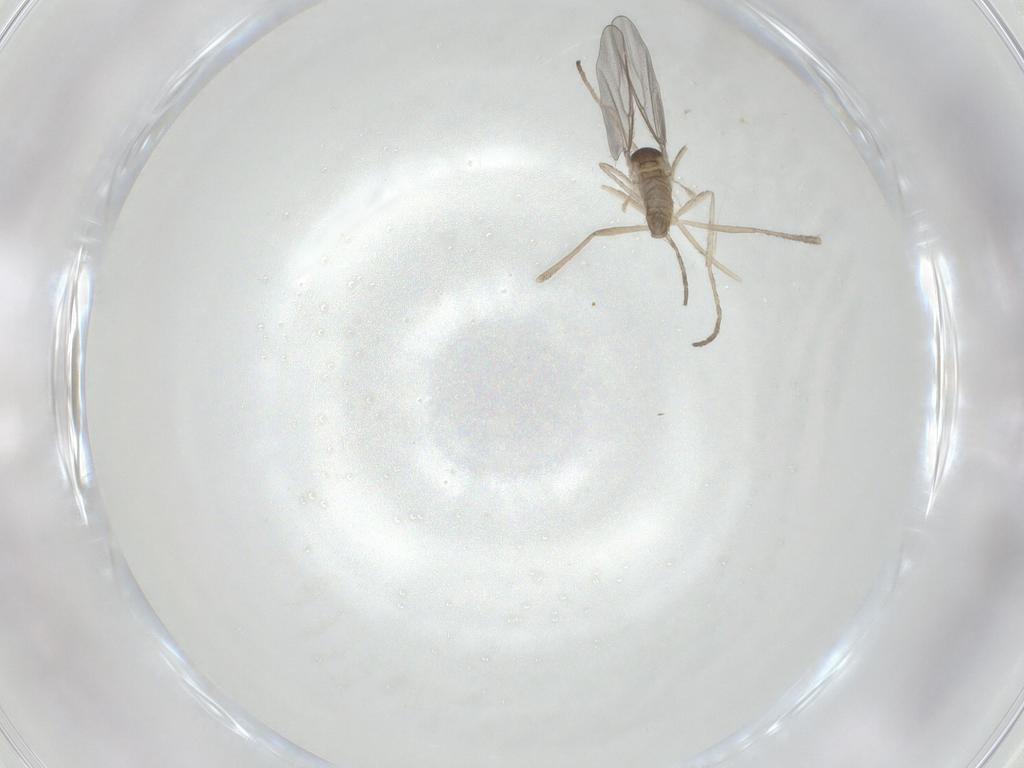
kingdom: Animalia
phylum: Arthropoda
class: Insecta
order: Diptera
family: Cecidomyiidae
